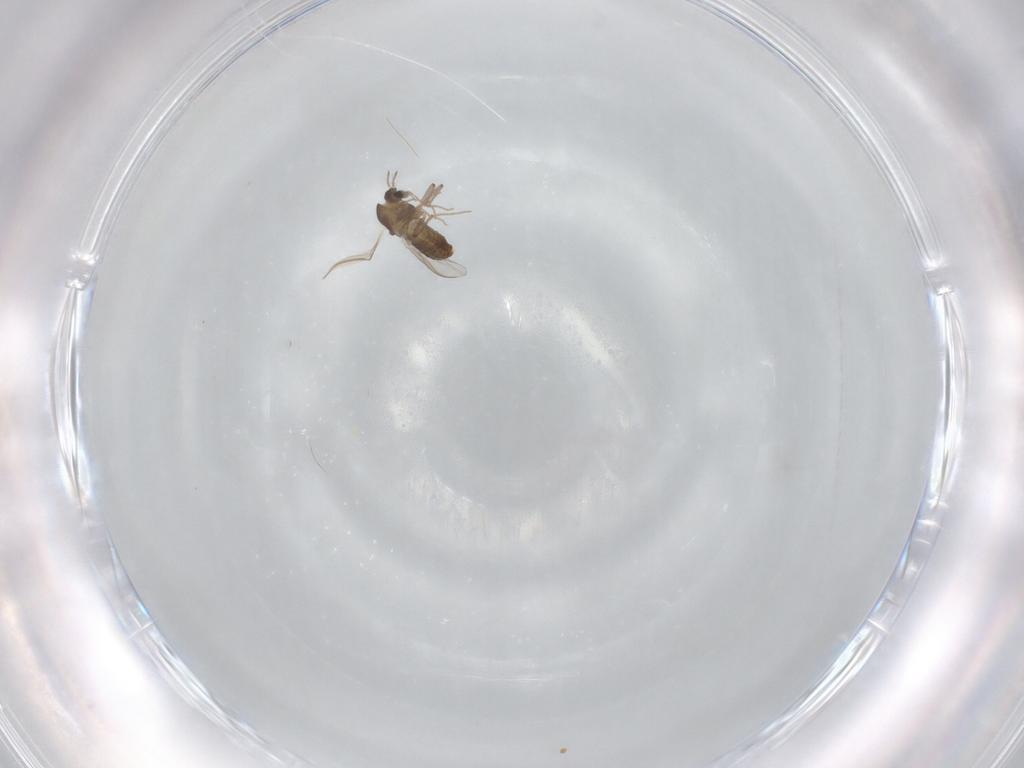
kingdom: Animalia
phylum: Arthropoda
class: Insecta
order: Diptera
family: Chironomidae
